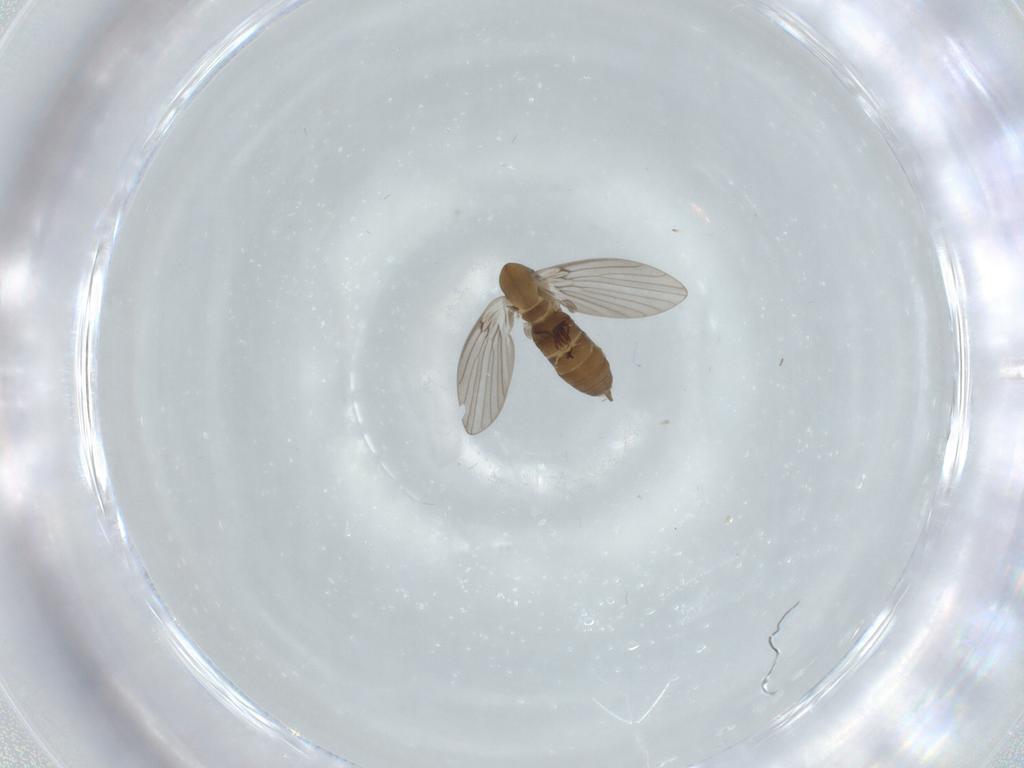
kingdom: Animalia
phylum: Arthropoda
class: Insecta
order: Diptera
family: Psychodidae
